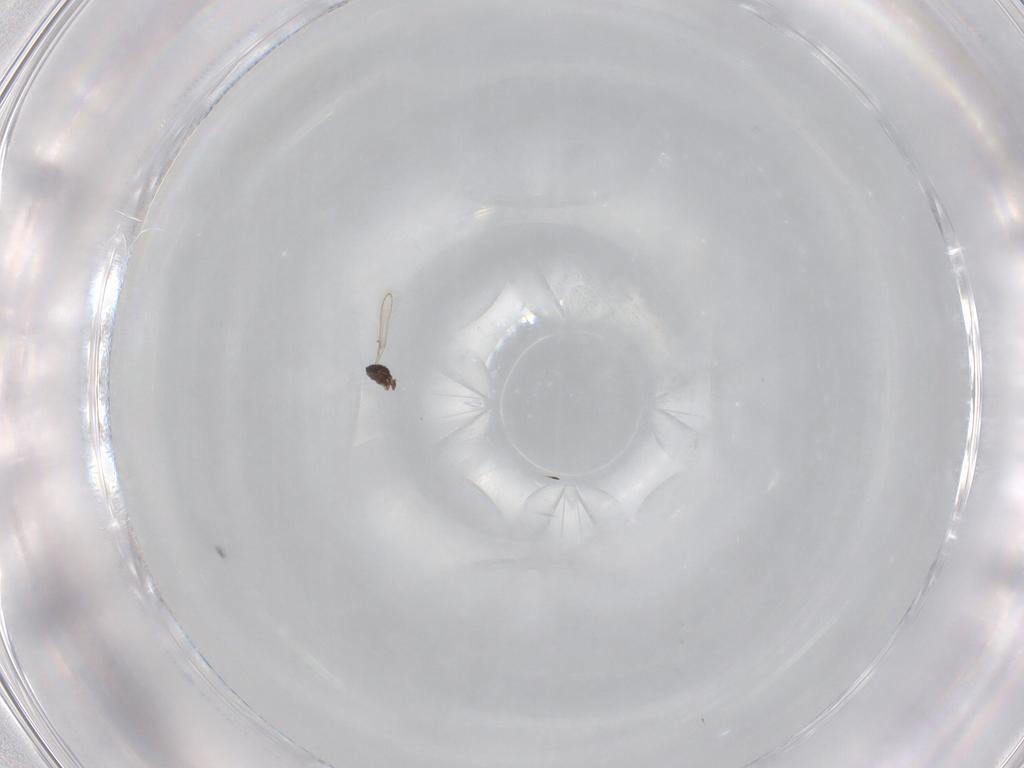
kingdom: Animalia
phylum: Arthropoda
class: Insecta
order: Hymenoptera
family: Vespidae
